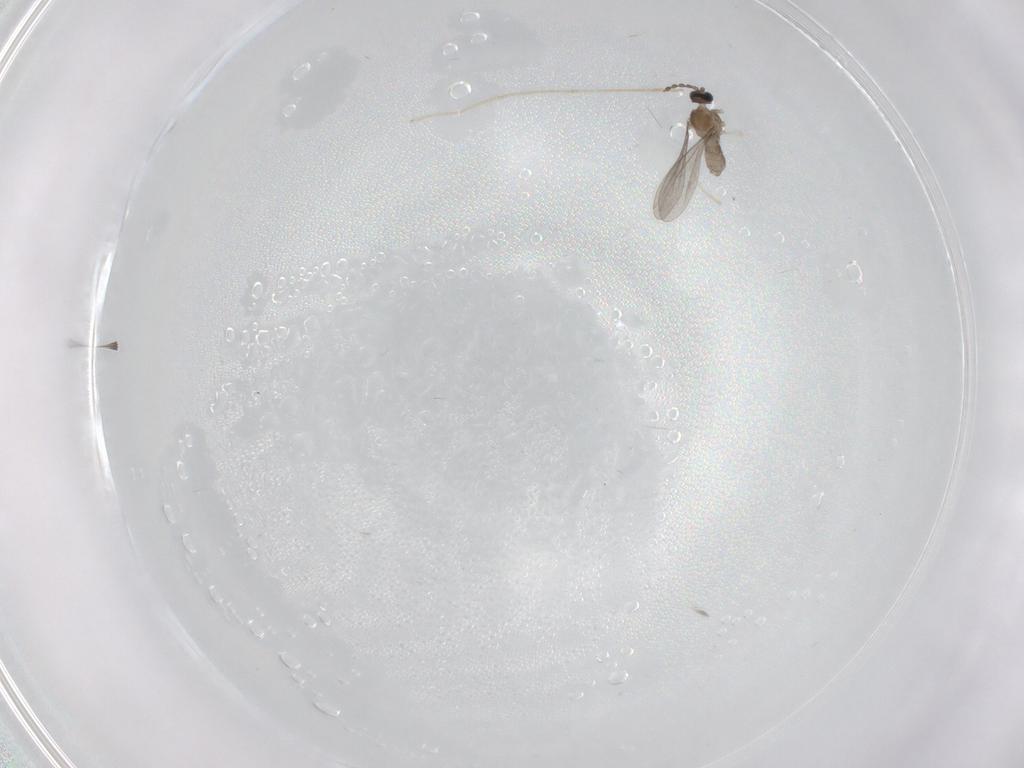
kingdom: Animalia
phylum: Arthropoda
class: Insecta
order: Diptera
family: Chironomidae
